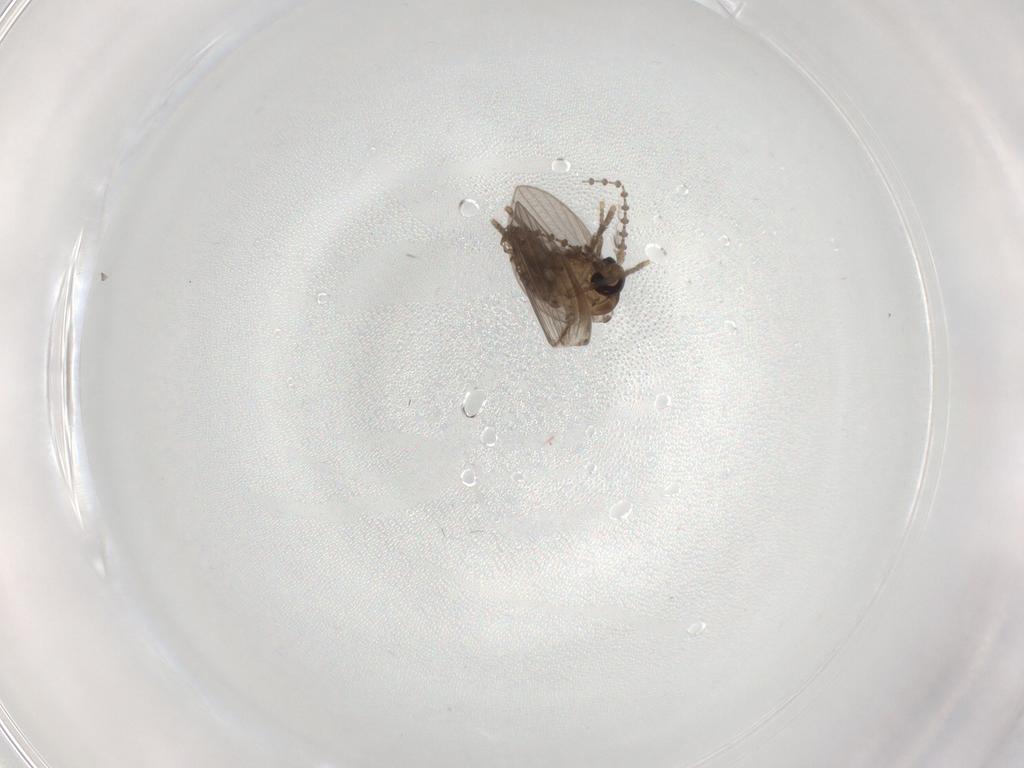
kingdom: Animalia
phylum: Arthropoda
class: Insecta
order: Diptera
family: Psychodidae
